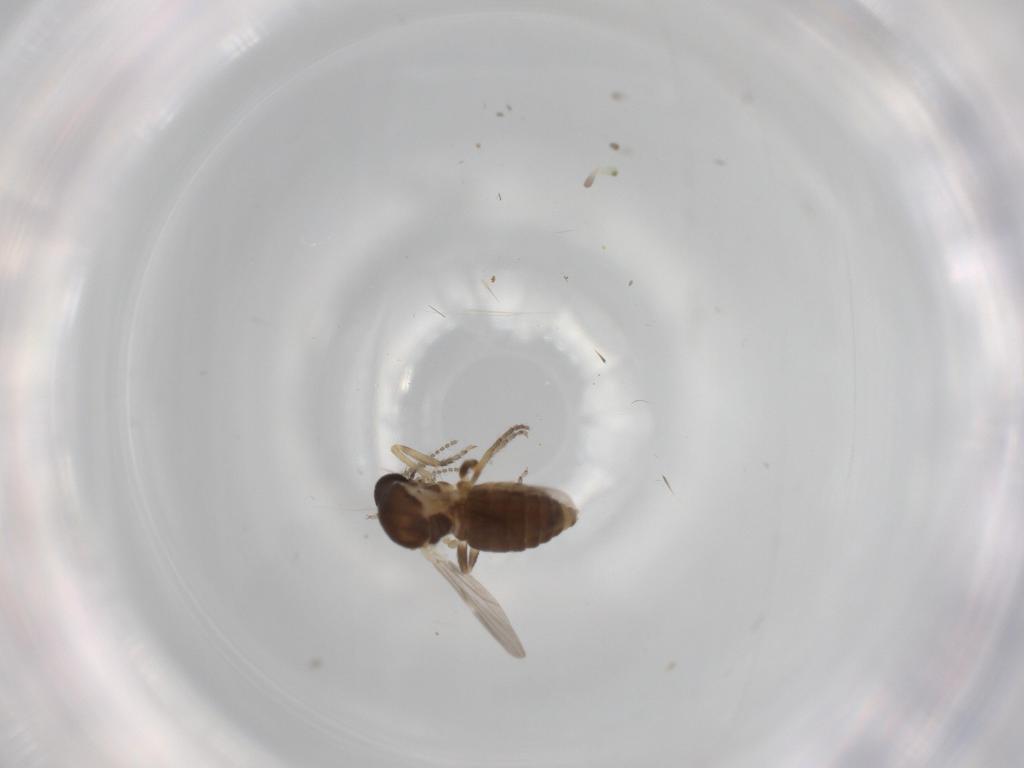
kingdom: Animalia
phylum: Arthropoda
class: Insecta
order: Diptera
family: Ceratopogonidae
